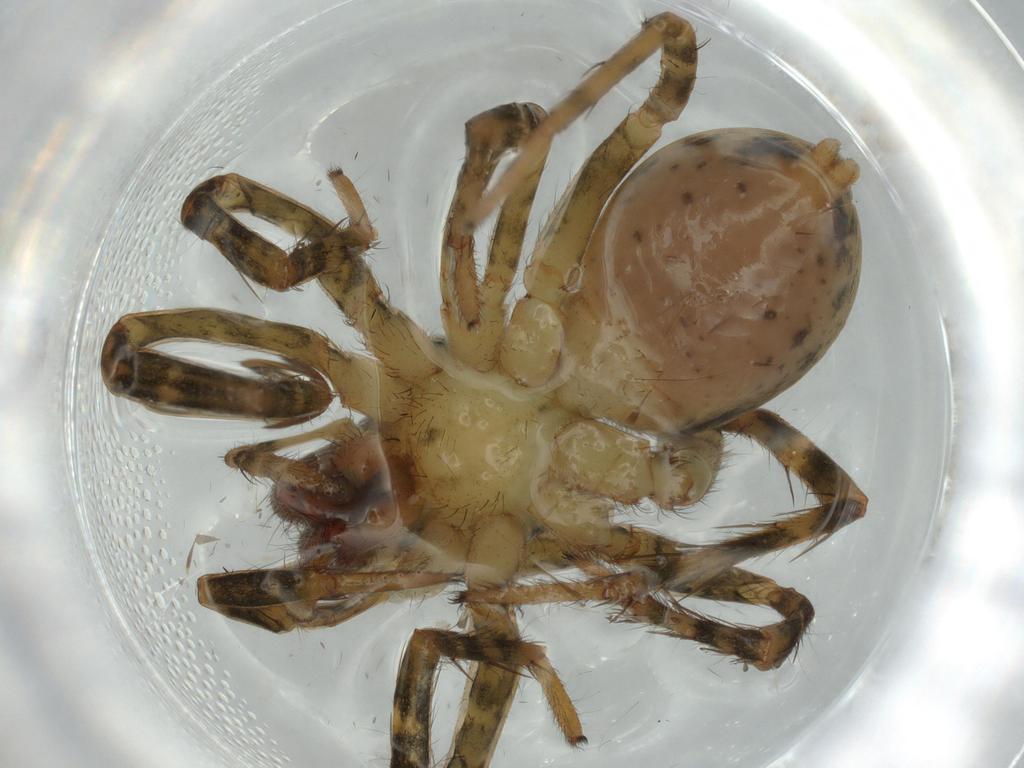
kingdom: Animalia
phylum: Arthropoda
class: Arachnida
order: Araneae
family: Lycosidae
